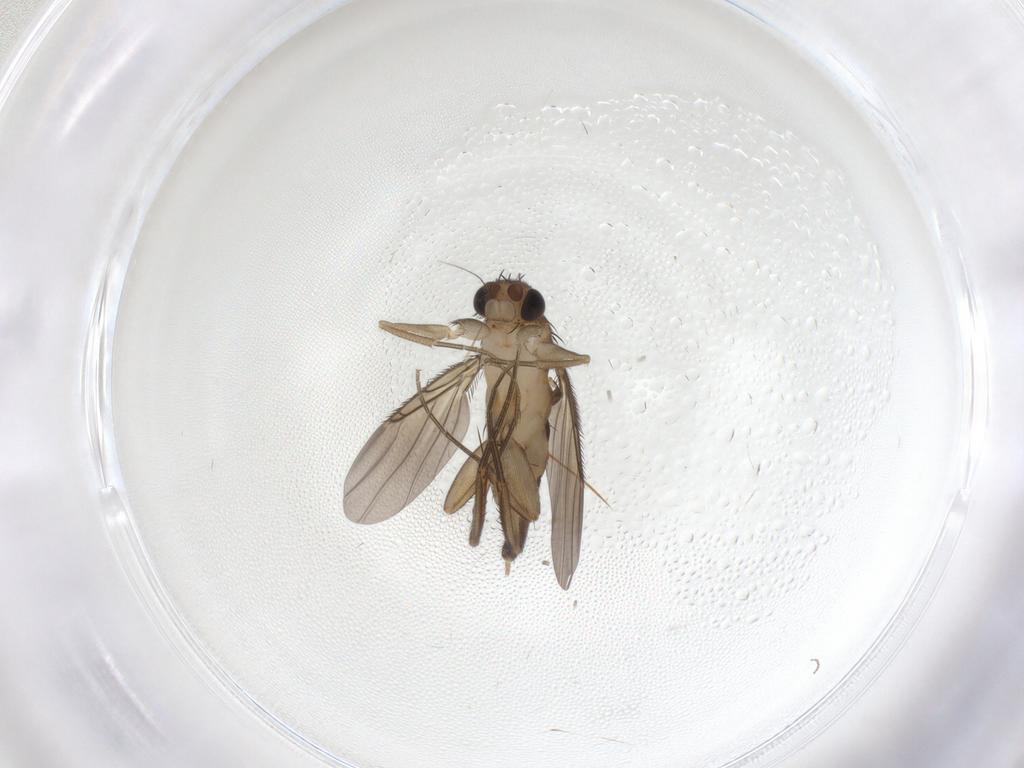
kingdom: Animalia
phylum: Arthropoda
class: Insecta
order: Diptera
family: Phoridae
